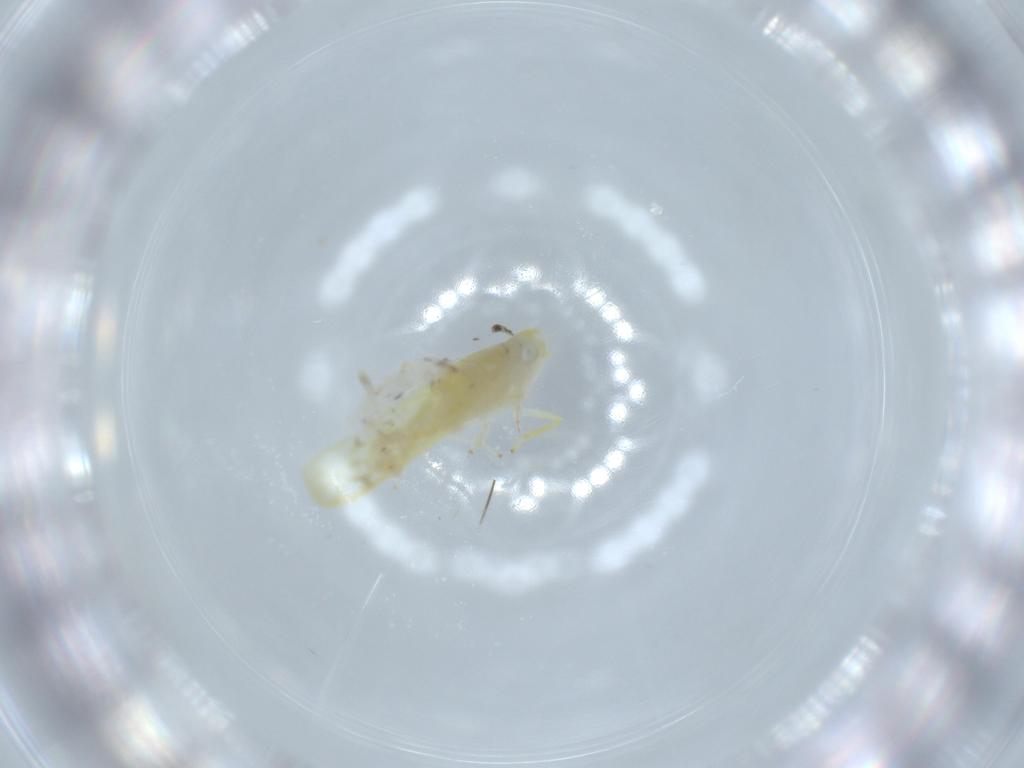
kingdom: Animalia
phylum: Arthropoda
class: Insecta
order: Hemiptera
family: Cicadellidae
